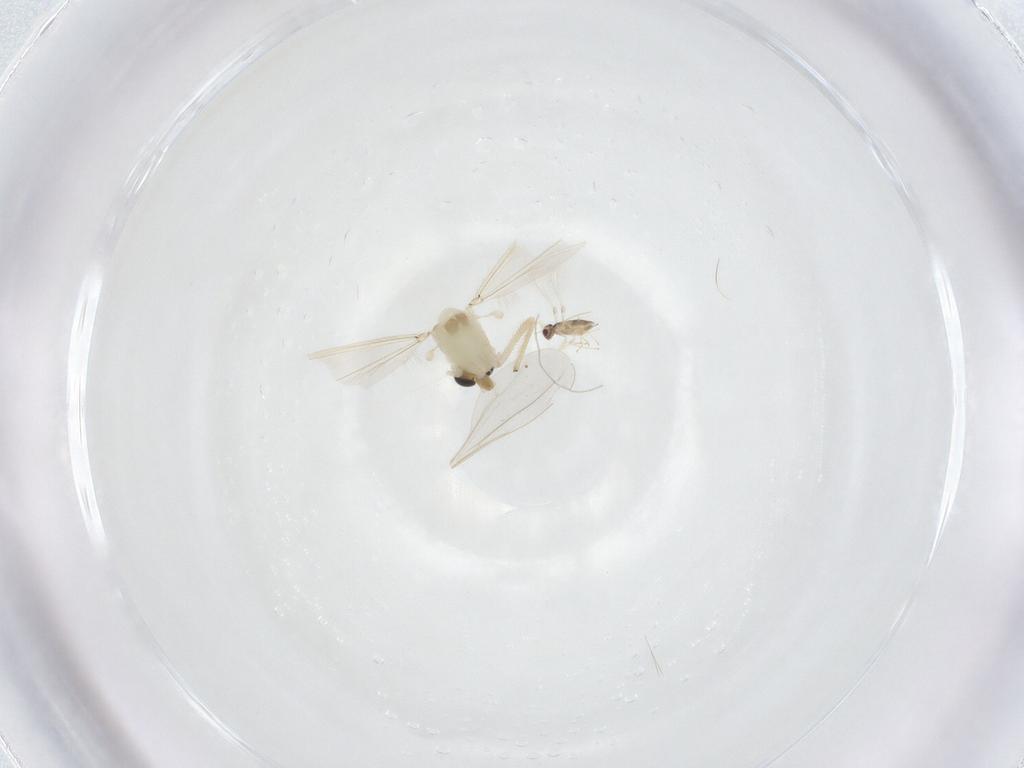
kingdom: Animalia
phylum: Arthropoda
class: Insecta
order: Diptera
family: Chironomidae
